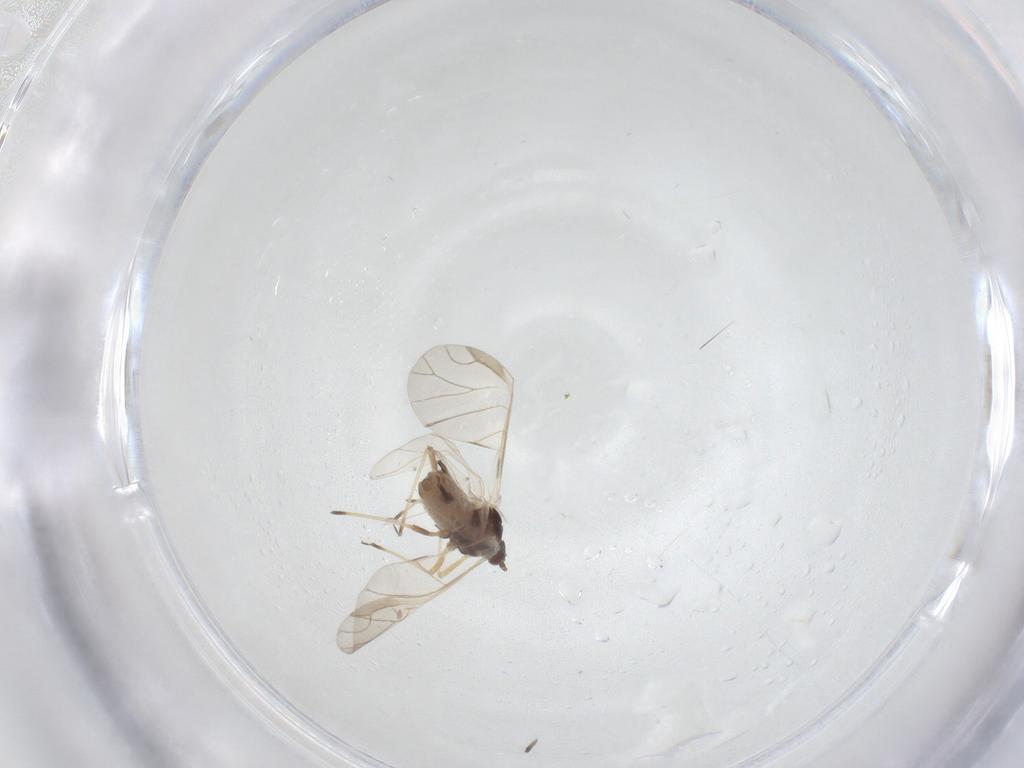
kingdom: Animalia
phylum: Arthropoda
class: Insecta
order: Hemiptera
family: Aphididae
